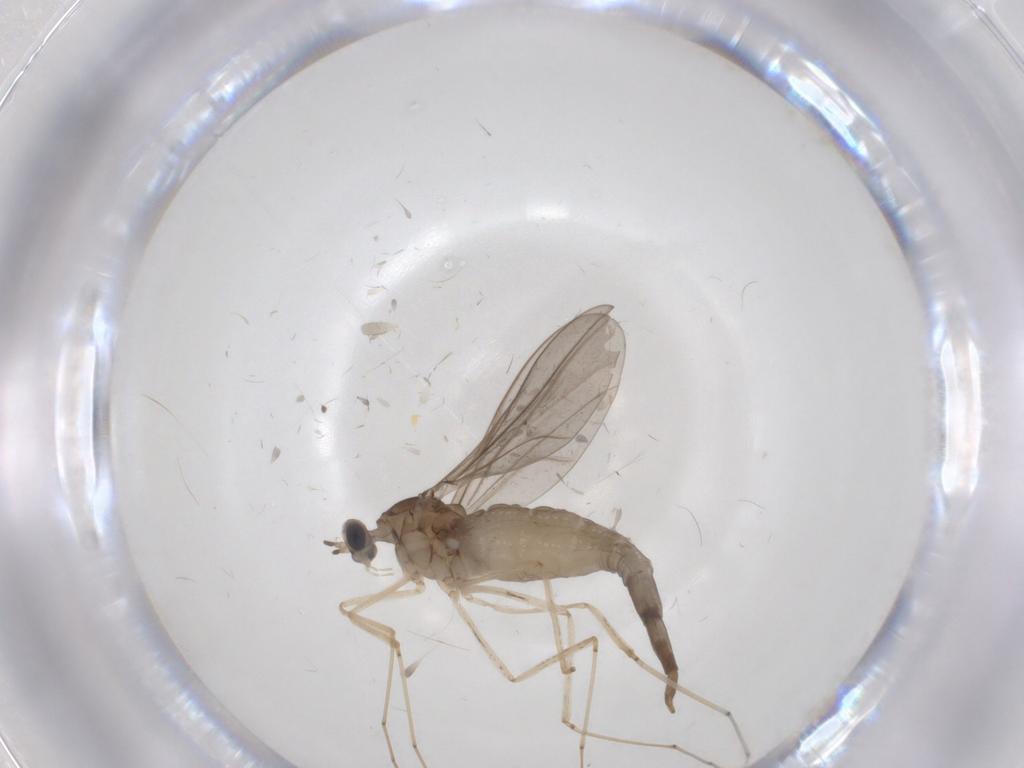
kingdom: Animalia
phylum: Arthropoda
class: Insecta
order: Diptera
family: Cecidomyiidae
